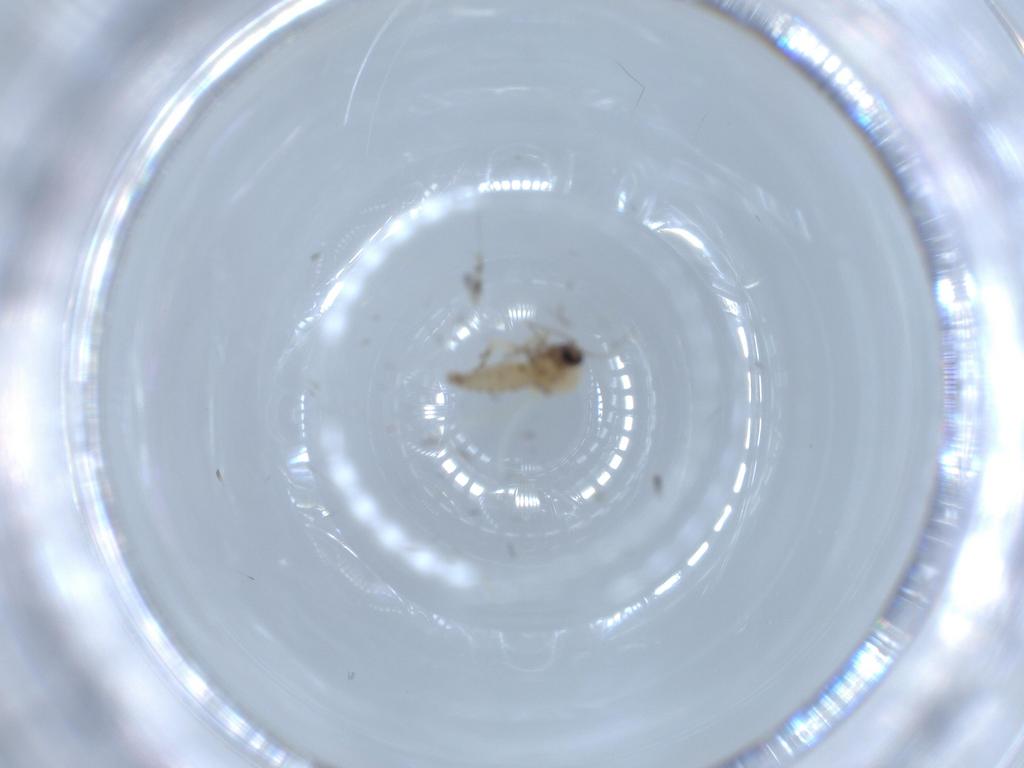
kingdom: Animalia
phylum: Arthropoda
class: Insecta
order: Diptera
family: Ceratopogonidae
